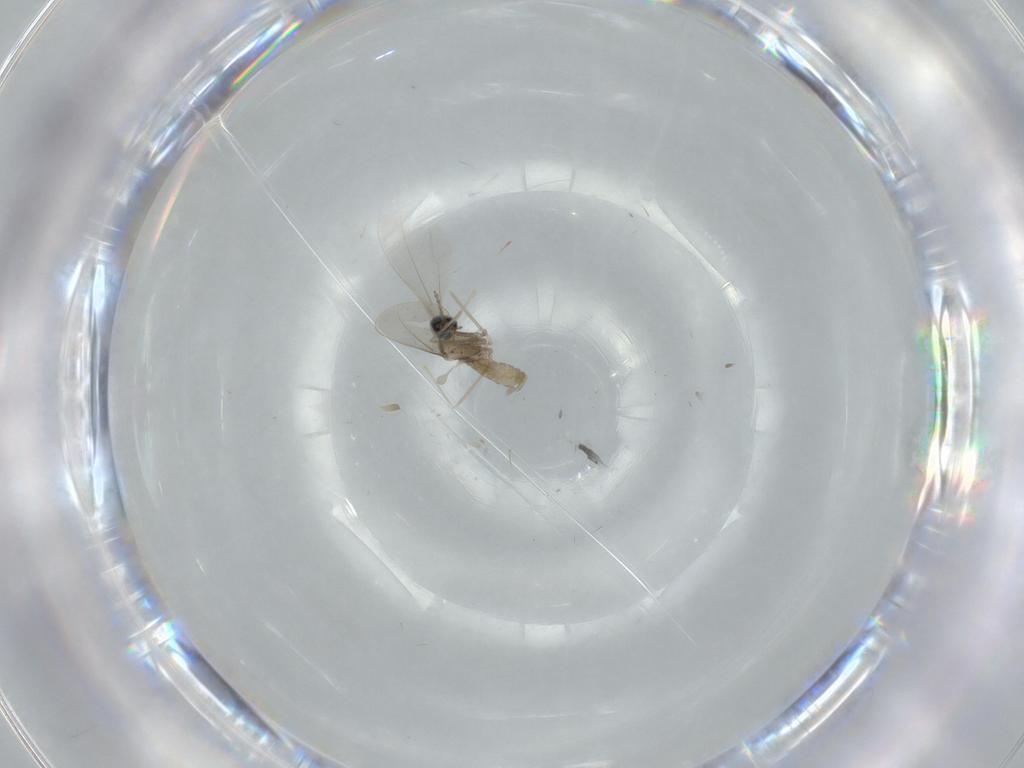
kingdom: Animalia
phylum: Arthropoda
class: Insecta
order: Diptera
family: Cecidomyiidae
